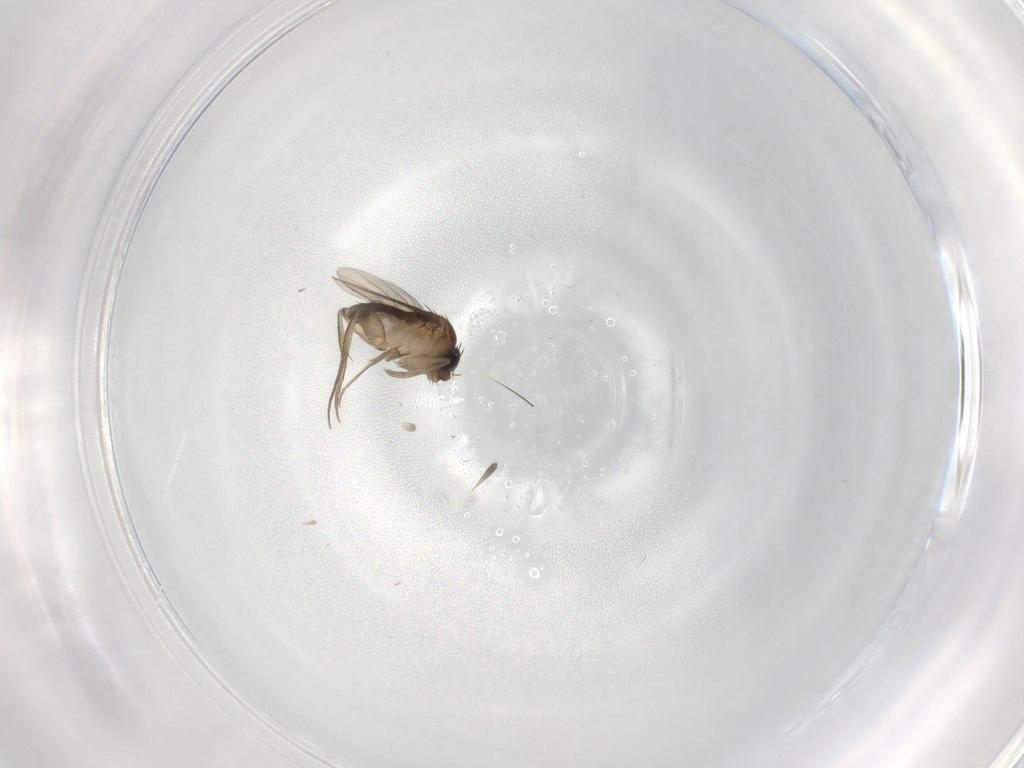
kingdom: Animalia
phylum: Arthropoda
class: Insecta
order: Diptera
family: Phoridae
